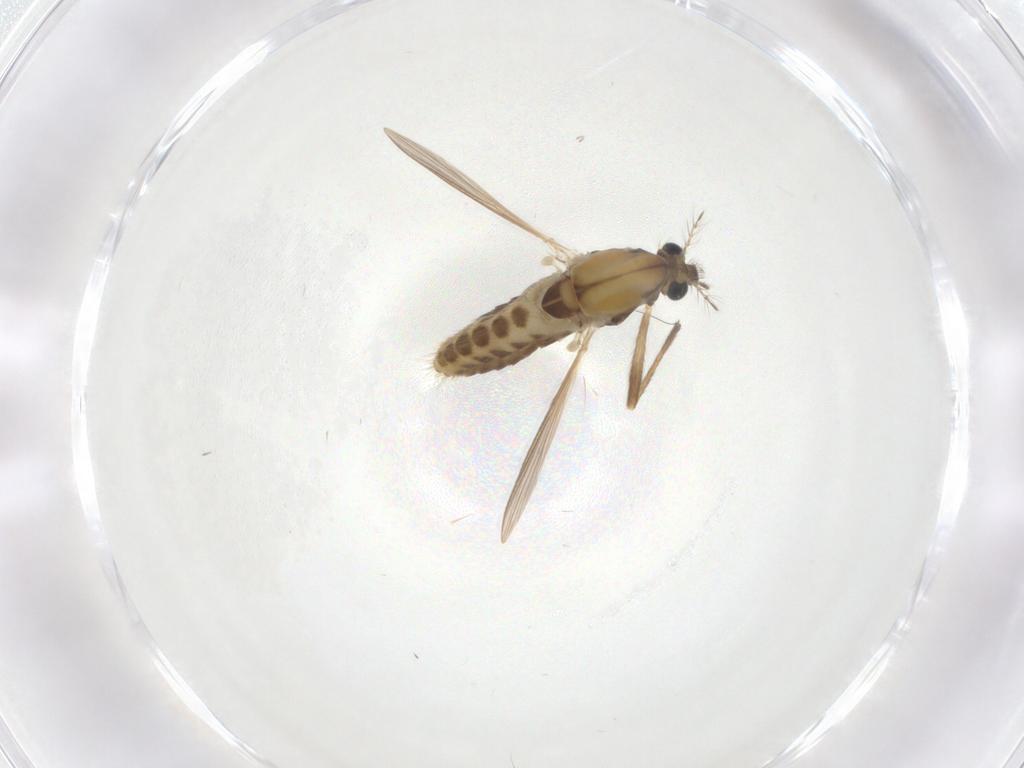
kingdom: Animalia
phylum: Arthropoda
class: Insecta
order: Diptera
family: Chironomidae
